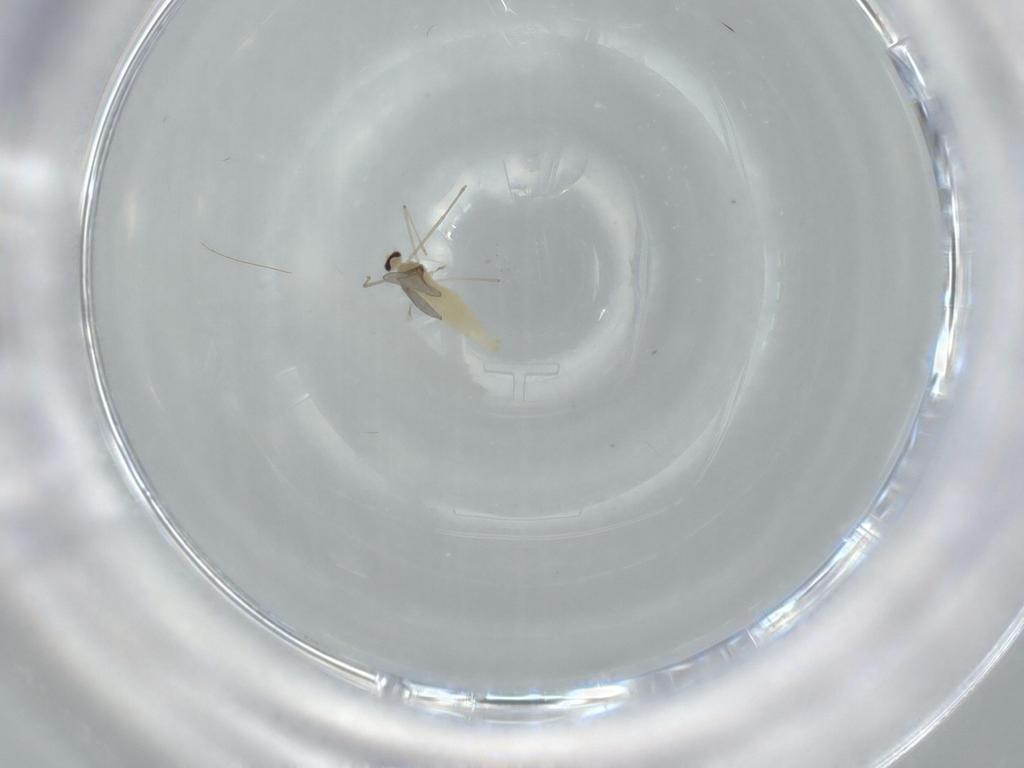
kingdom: Animalia
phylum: Arthropoda
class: Insecta
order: Diptera
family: Cecidomyiidae
